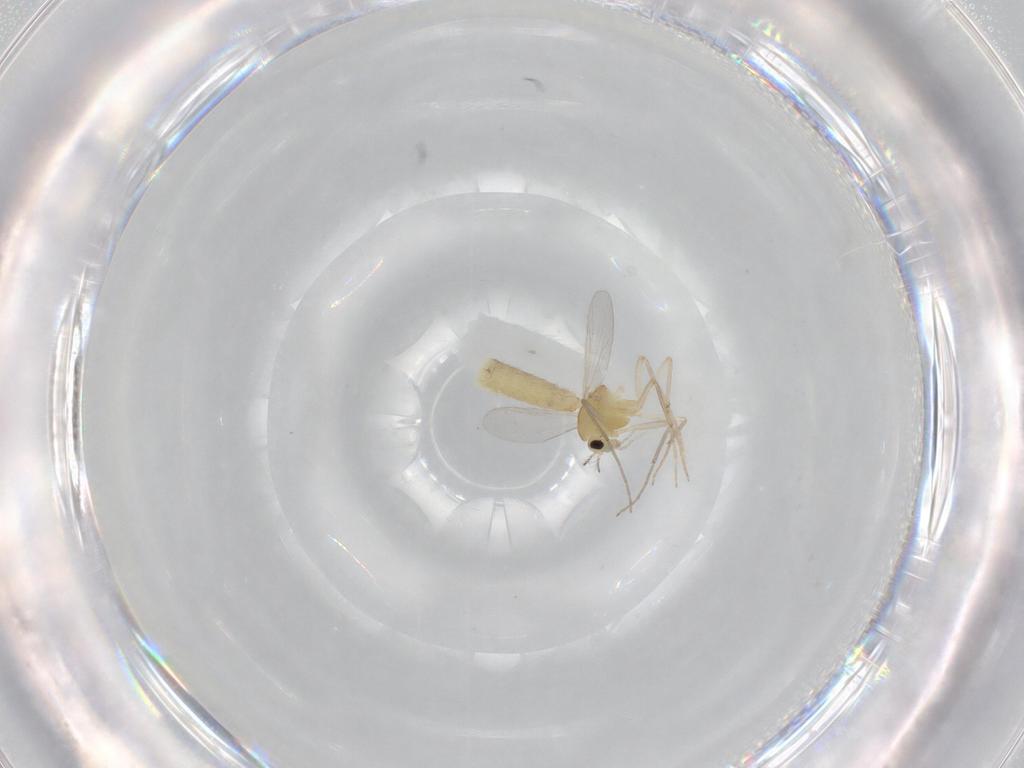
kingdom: Animalia
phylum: Arthropoda
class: Insecta
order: Diptera
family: Chironomidae
